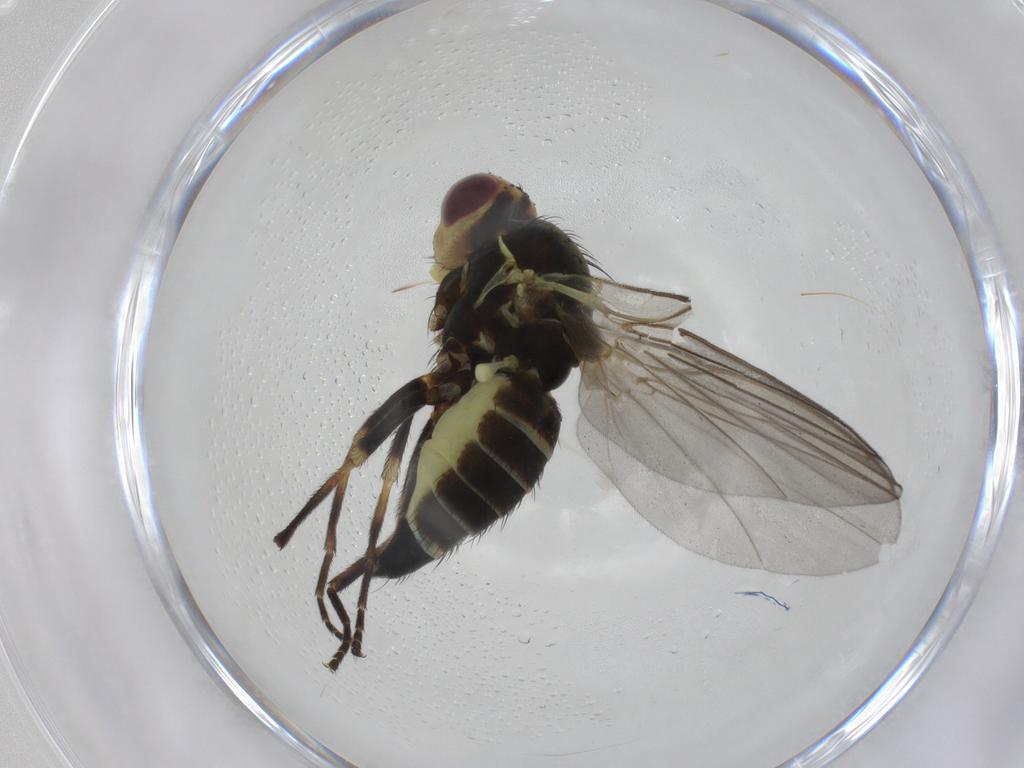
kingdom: Animalia
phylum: Arthropoda
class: Insecta
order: Diptera
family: Agromyzidae
